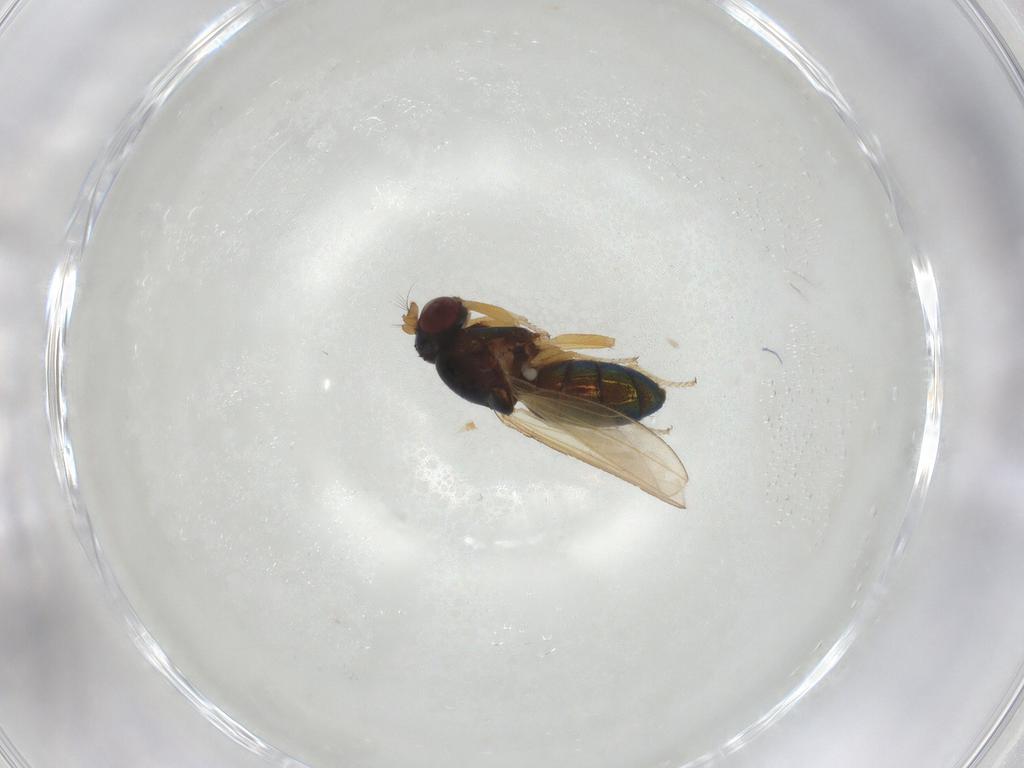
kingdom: Animalia
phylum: Arthropoda
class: Insecta
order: Diptera
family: Ephydridae
